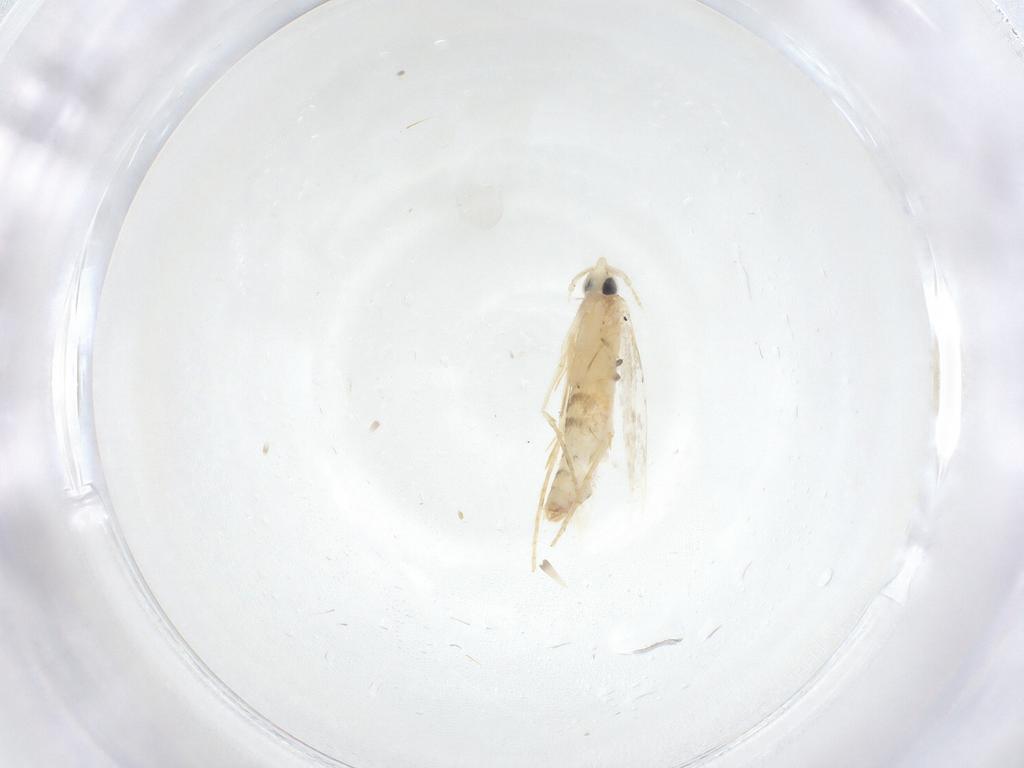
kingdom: Animalia
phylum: Arthropoda
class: Insecta
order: Lepidoptera
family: Tineidae
